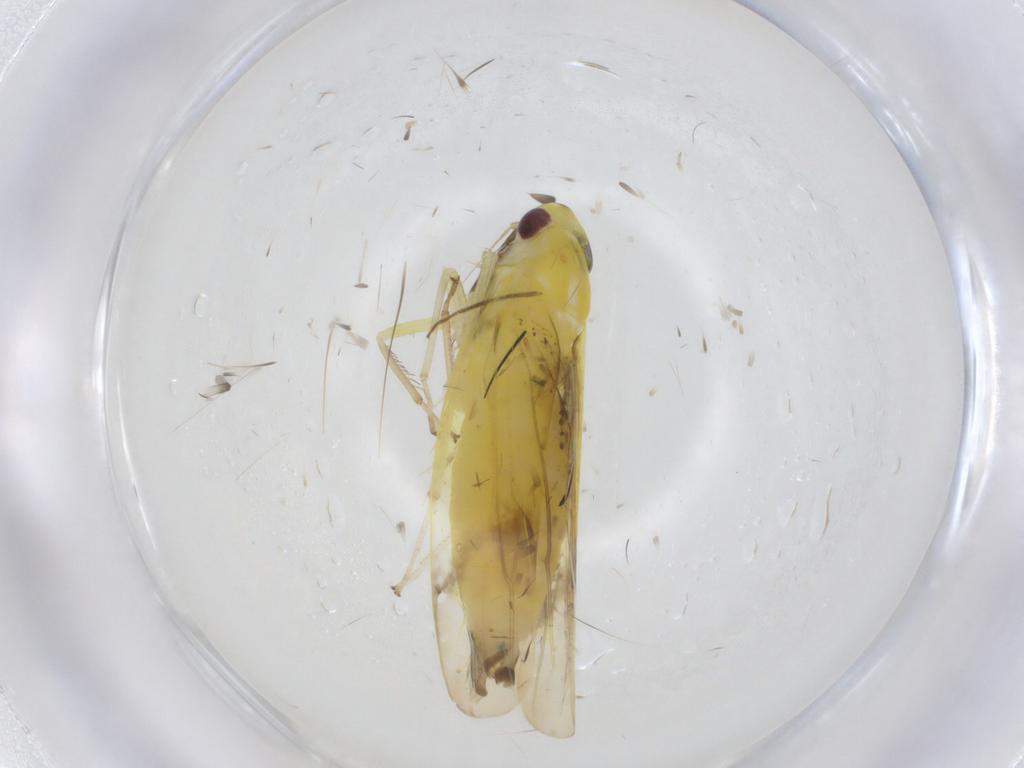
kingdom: Animalia
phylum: Arthropoda
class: Insecta
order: Hemiptera
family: Cicadellidae
